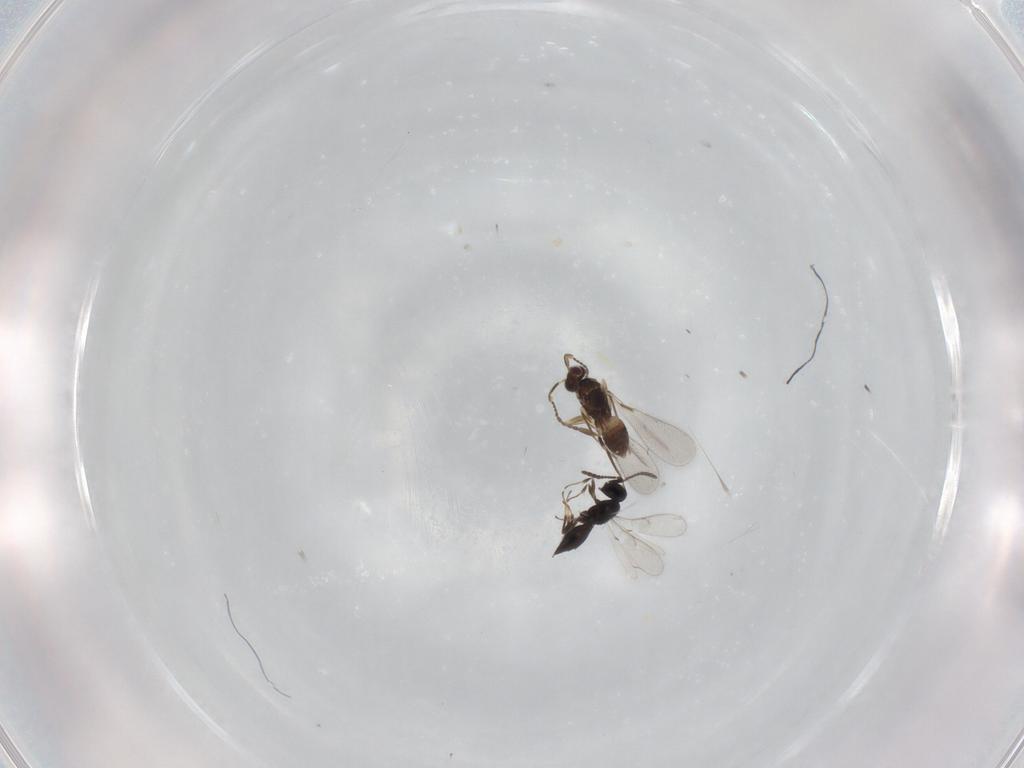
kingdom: Animalia
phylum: Arthropoda
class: Insecta
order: Hymenoptera
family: Scelionidae
